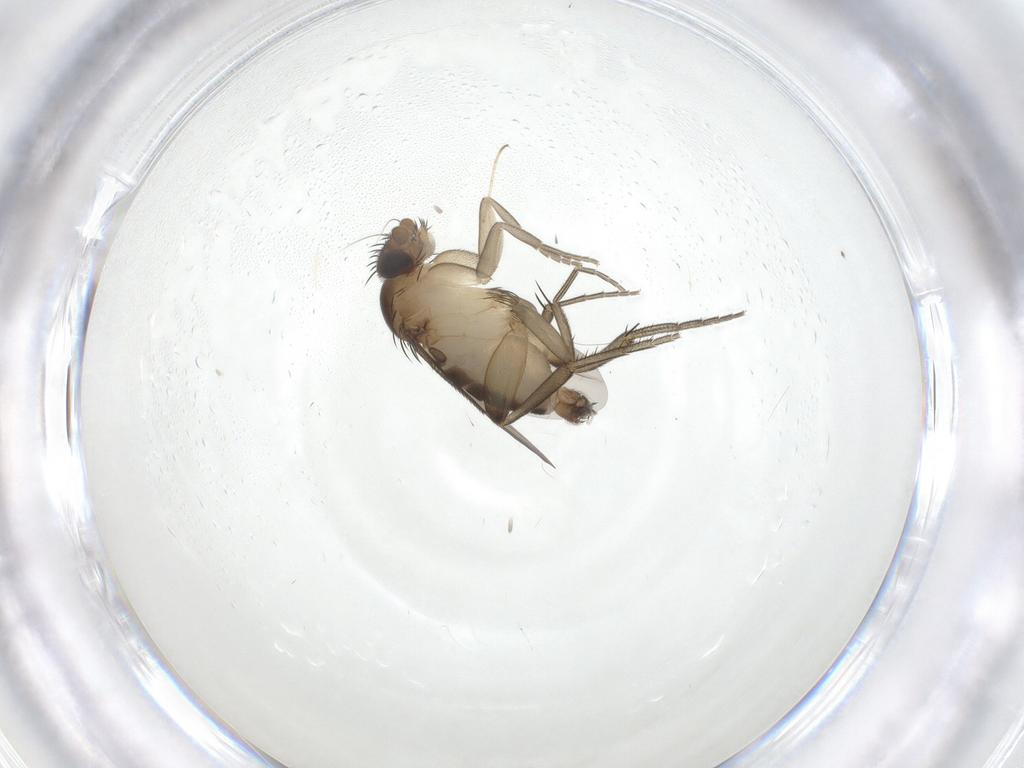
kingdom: Animalia
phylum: Arthropoda
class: Insecta
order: Diptera
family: Phoridae
